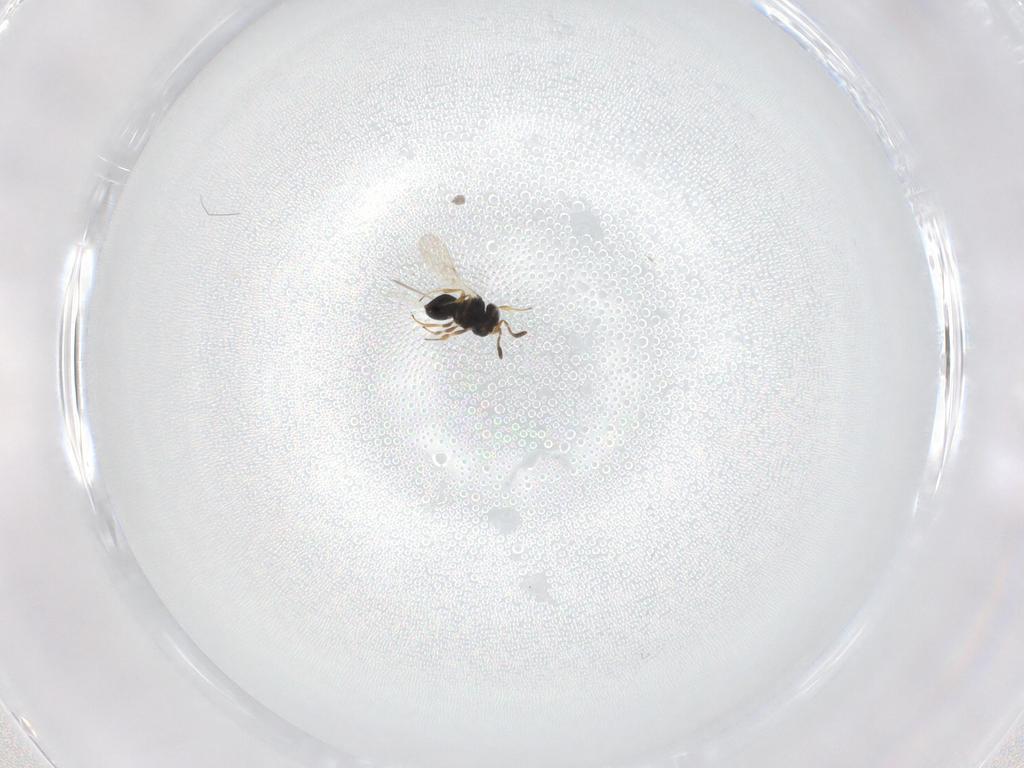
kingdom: Animalia
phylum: Arthropoda
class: Insecta
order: Hymenoptera
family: Scelionidae
